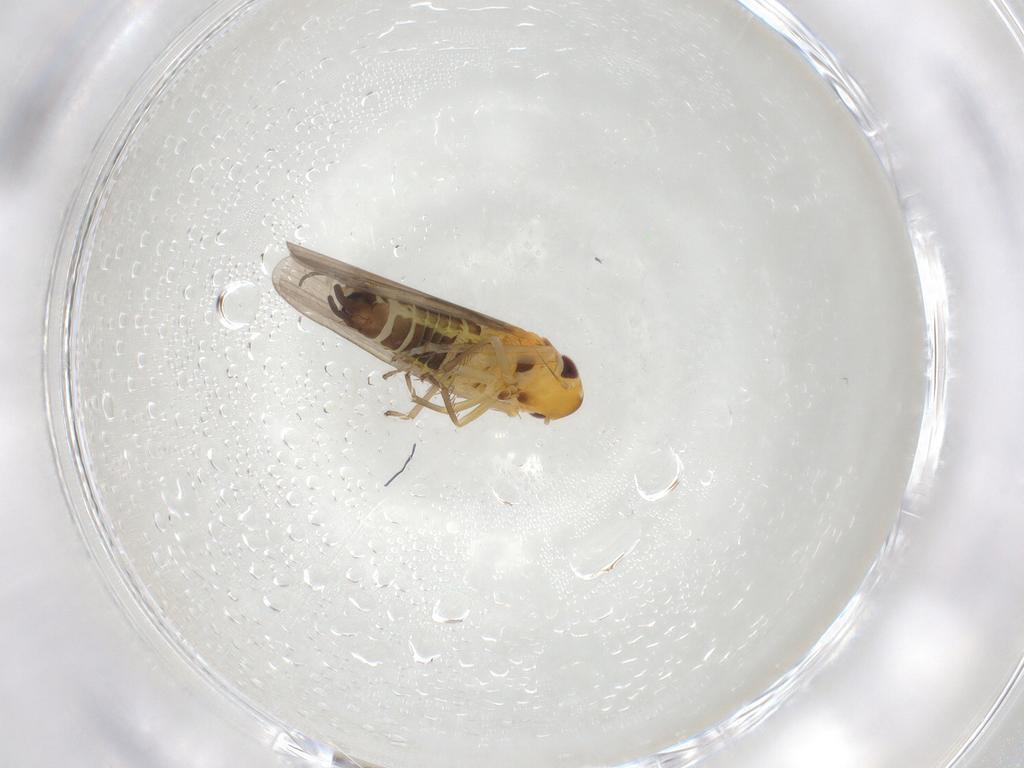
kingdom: Animalia
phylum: Arthropoda
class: Insecta
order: Hemiptera
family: Cicadellidae
